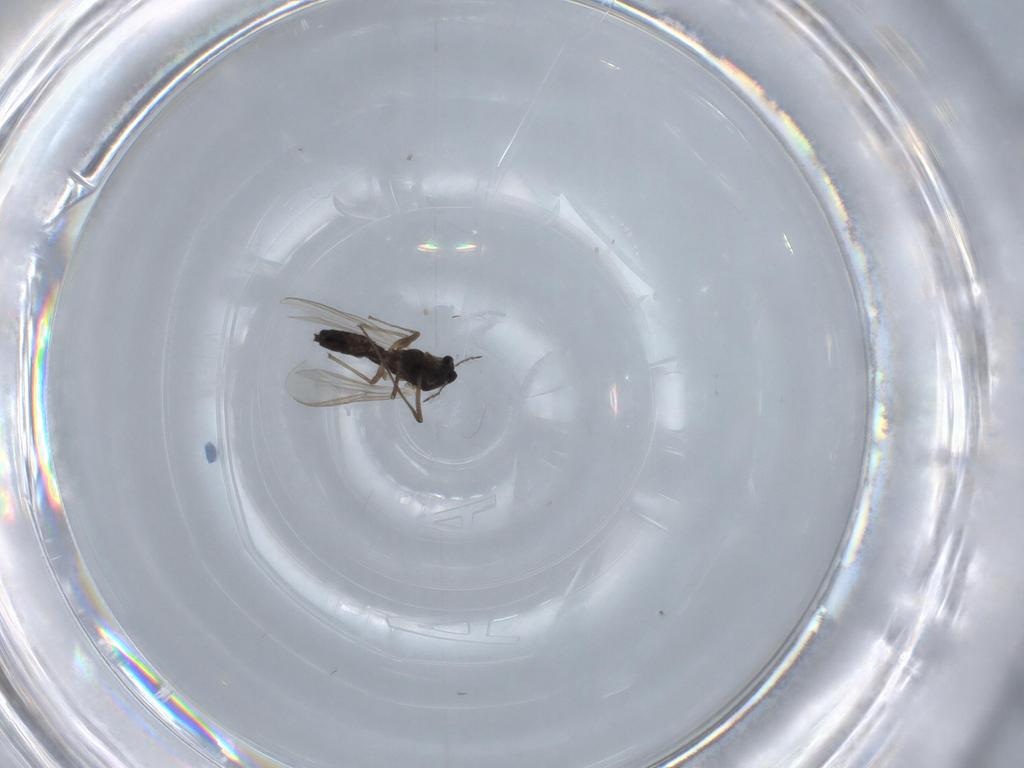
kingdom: Animalia
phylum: Arthropoda
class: Insecta
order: Diptera
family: Chironomidae
